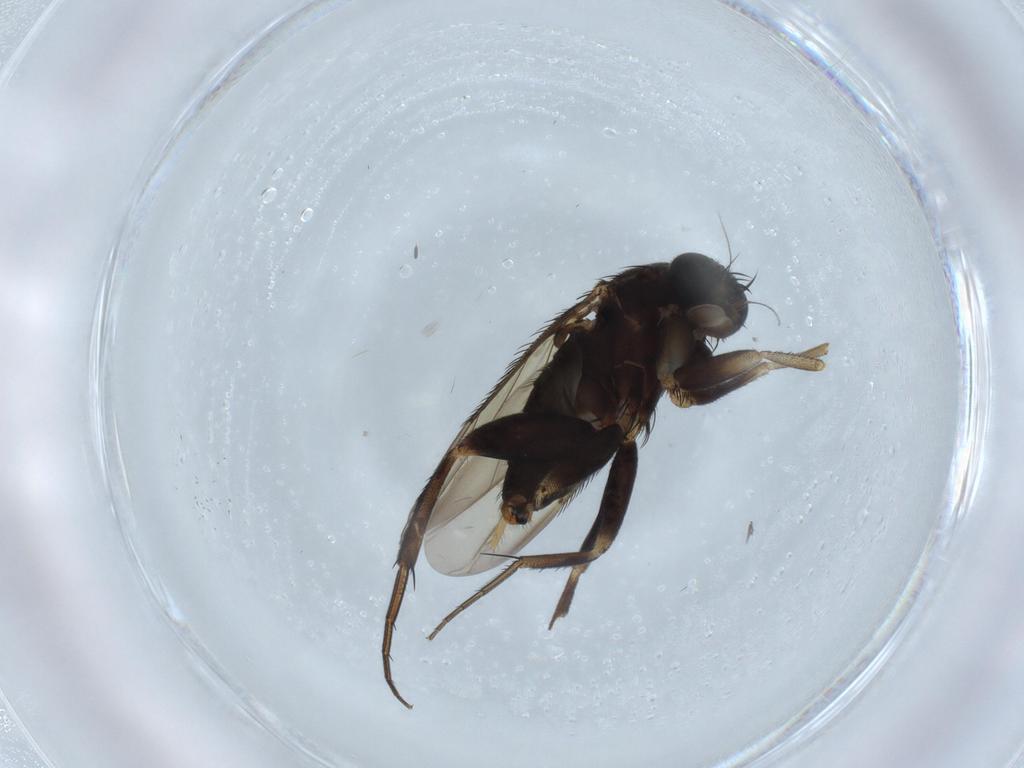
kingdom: Animalia
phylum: Arthropoda
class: Insecta
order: Diptera
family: Chironomidae
